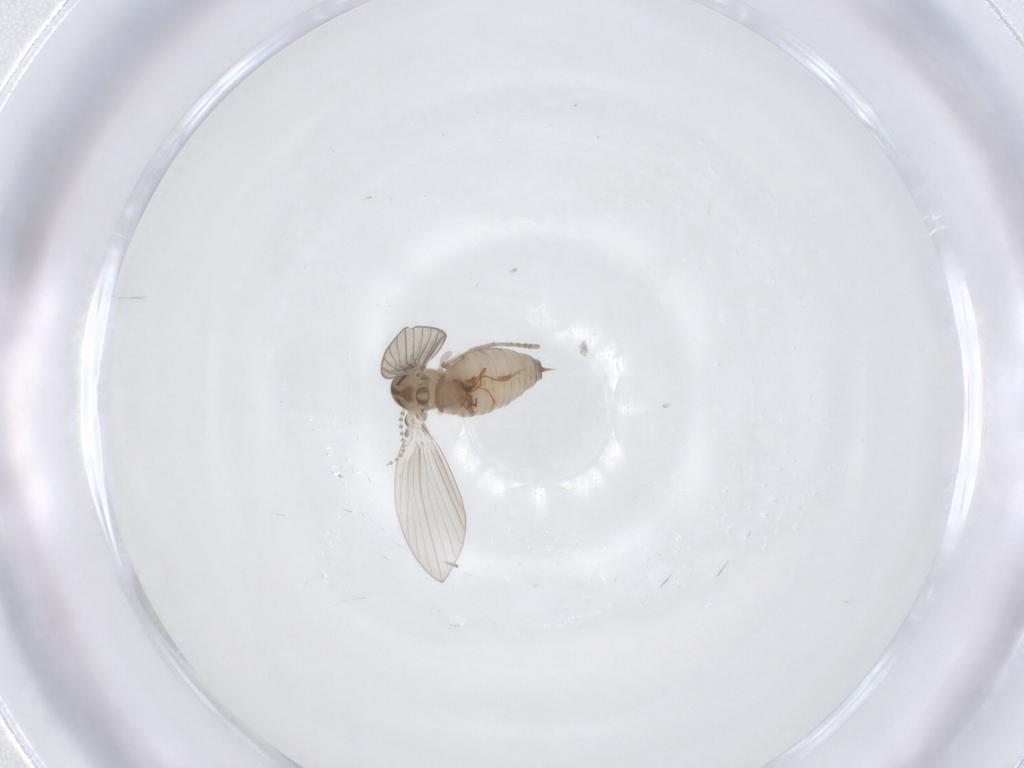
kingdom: Animalia
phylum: Arthropoda
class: Insecta
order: Diptera
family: Psychodidae
